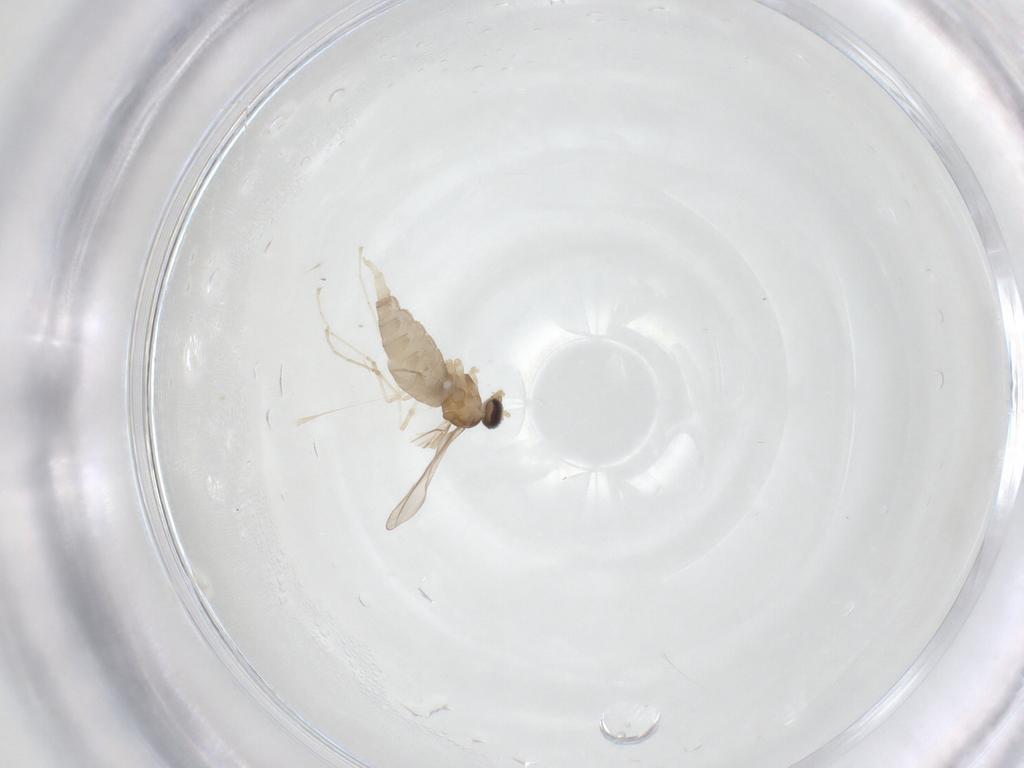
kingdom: Animalia
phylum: Arthropoda
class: Insecta
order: Diptera
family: Cecidomyiidae
